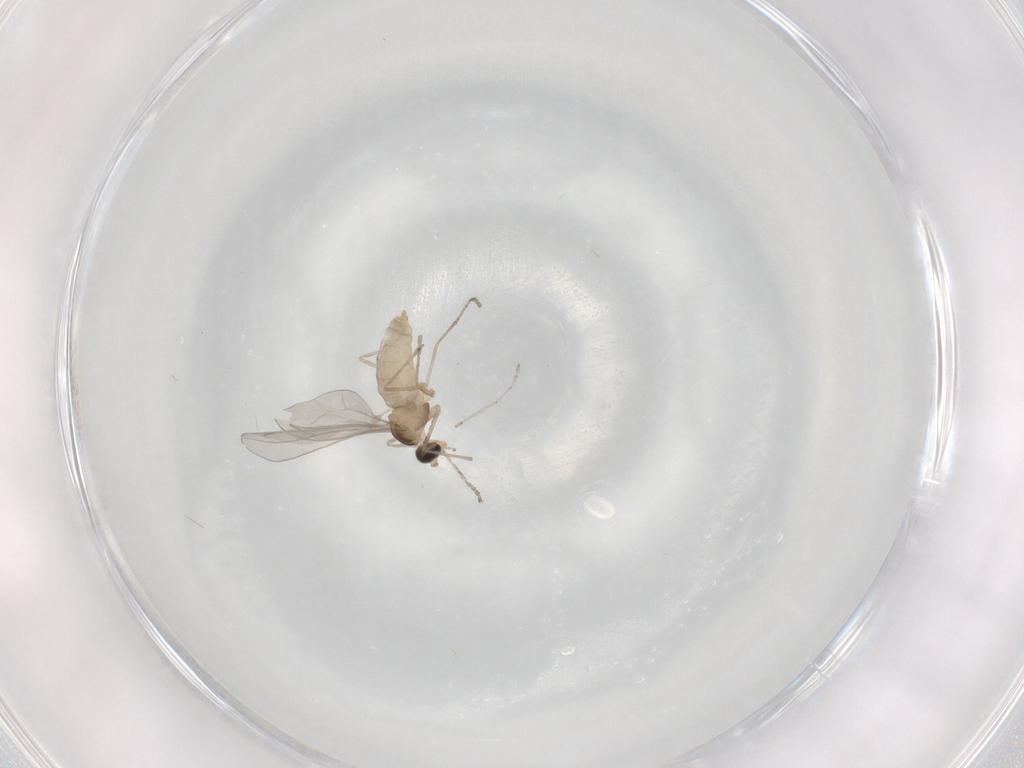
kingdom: Animalia
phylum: Arthropoda
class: Insecta
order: Diptera
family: Cecidomyiidae
